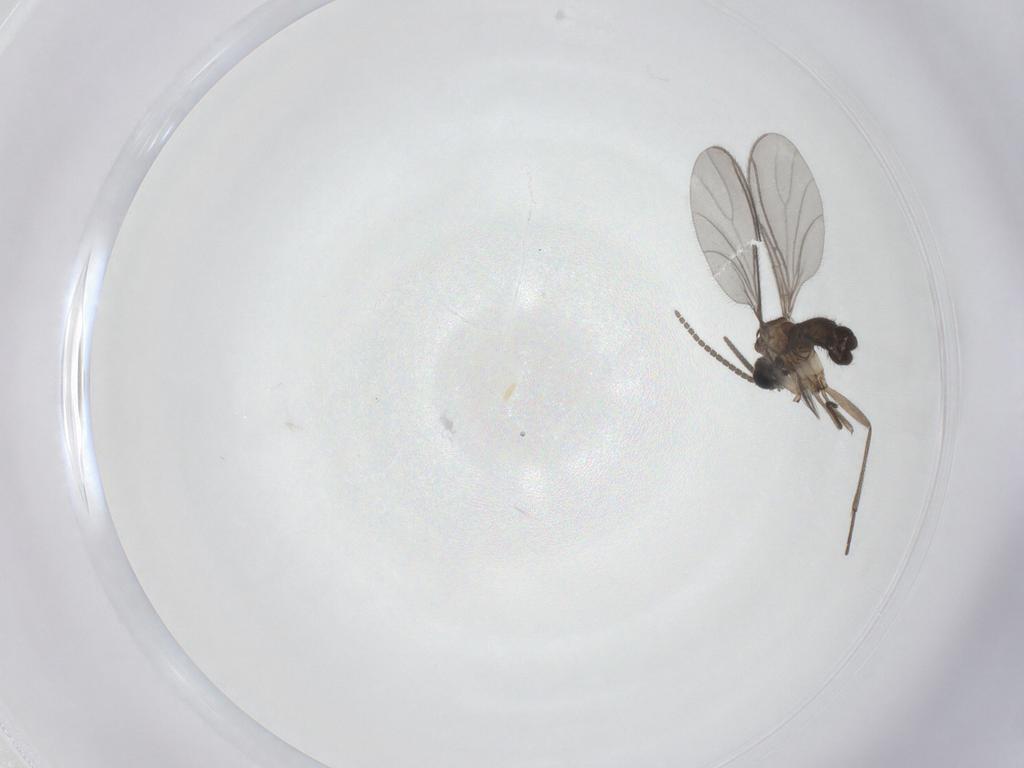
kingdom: Animalia
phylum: Arthropoda
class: Insecta
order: Diptera
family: Sciaridae
